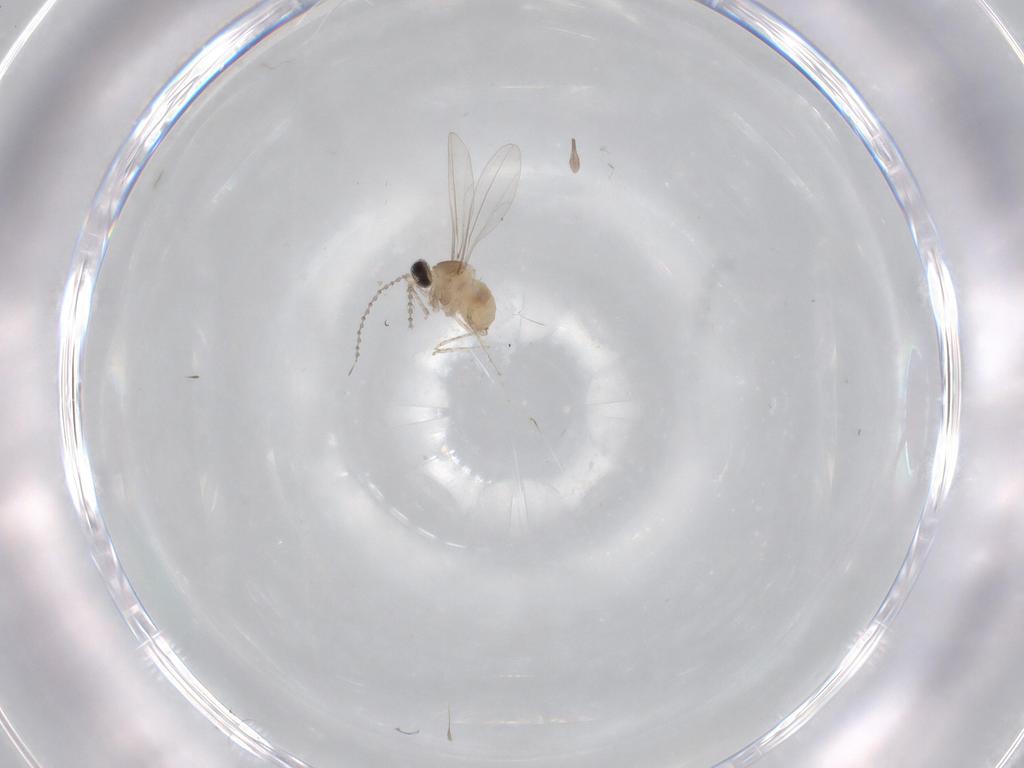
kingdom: Animalia
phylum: Arthropoda
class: Insecta
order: Diptera
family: Cecidomyiidae
